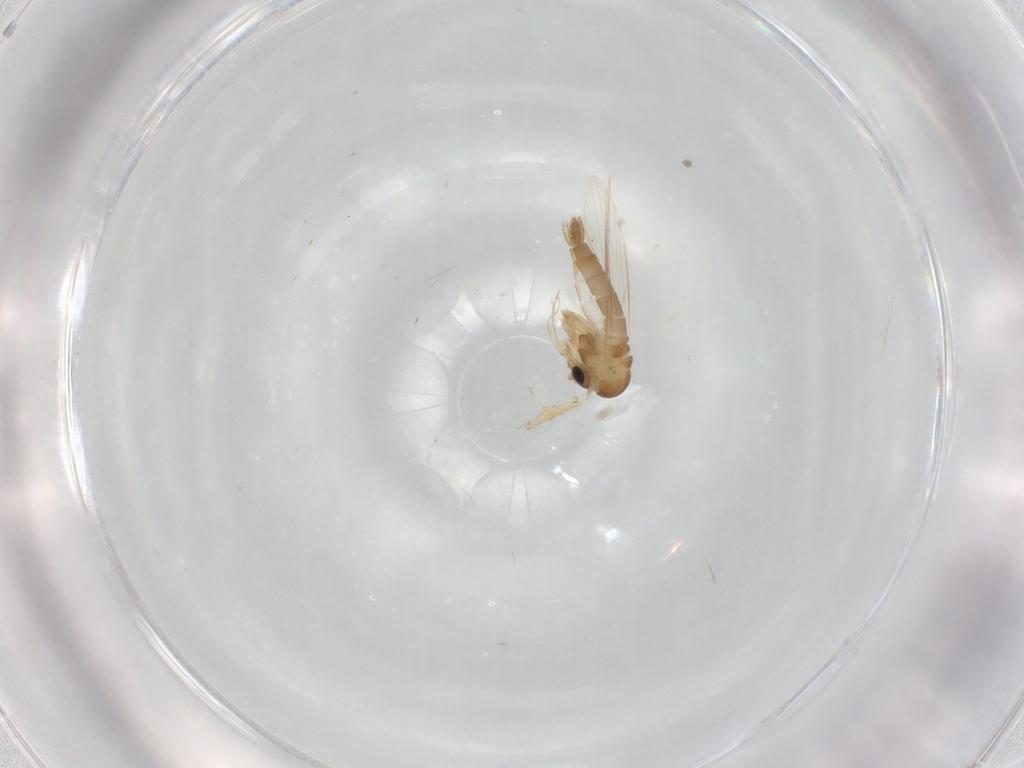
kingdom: Animalia
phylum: Arthropoda
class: Insecta
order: Diptera
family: Psychodidae
